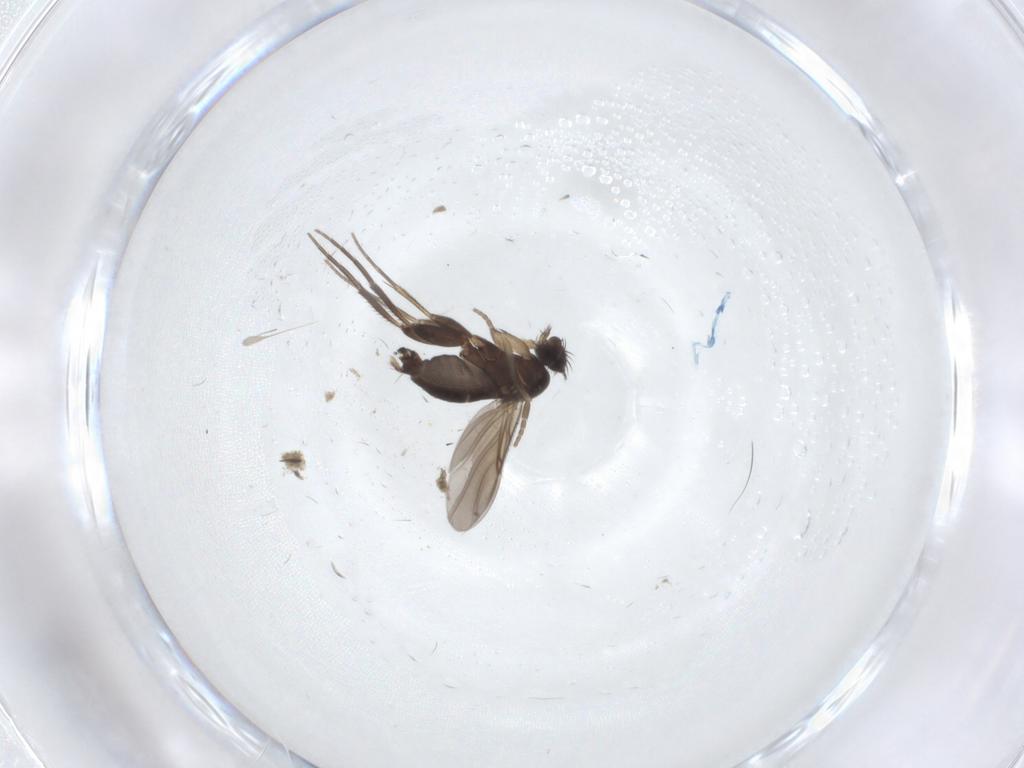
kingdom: Animalia
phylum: Arthropoda
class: Insecta
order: Diptera
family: Phoridae
